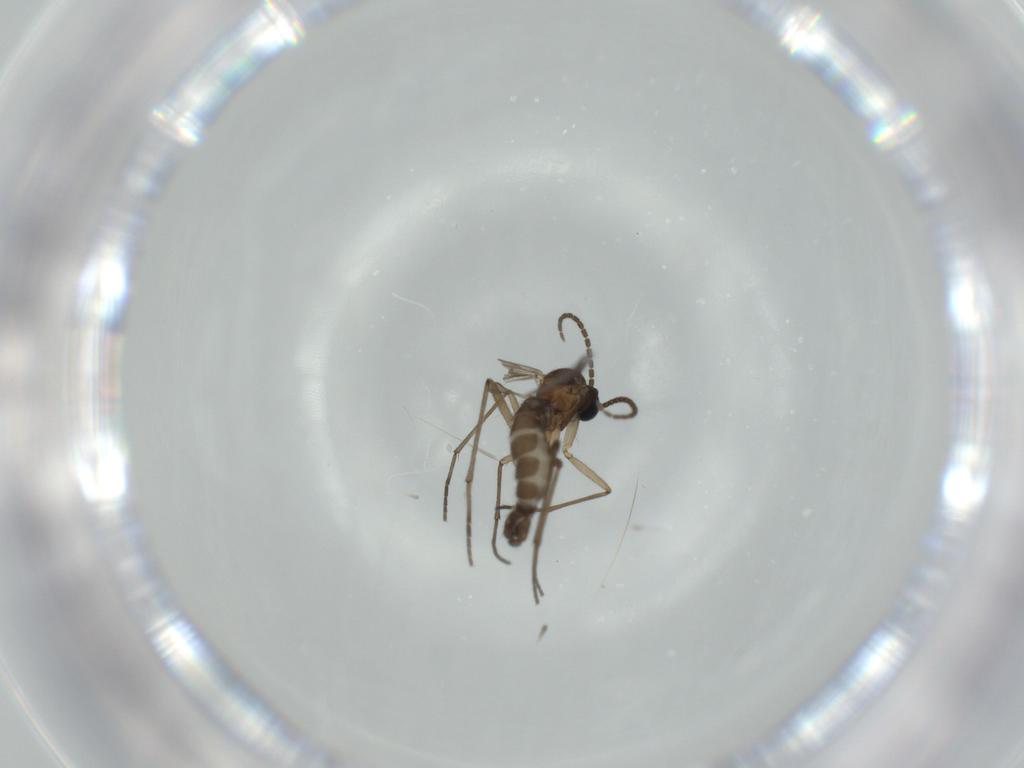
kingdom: Animalia
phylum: Arthropoda
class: Insecta
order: Diptera
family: Sciaridae
